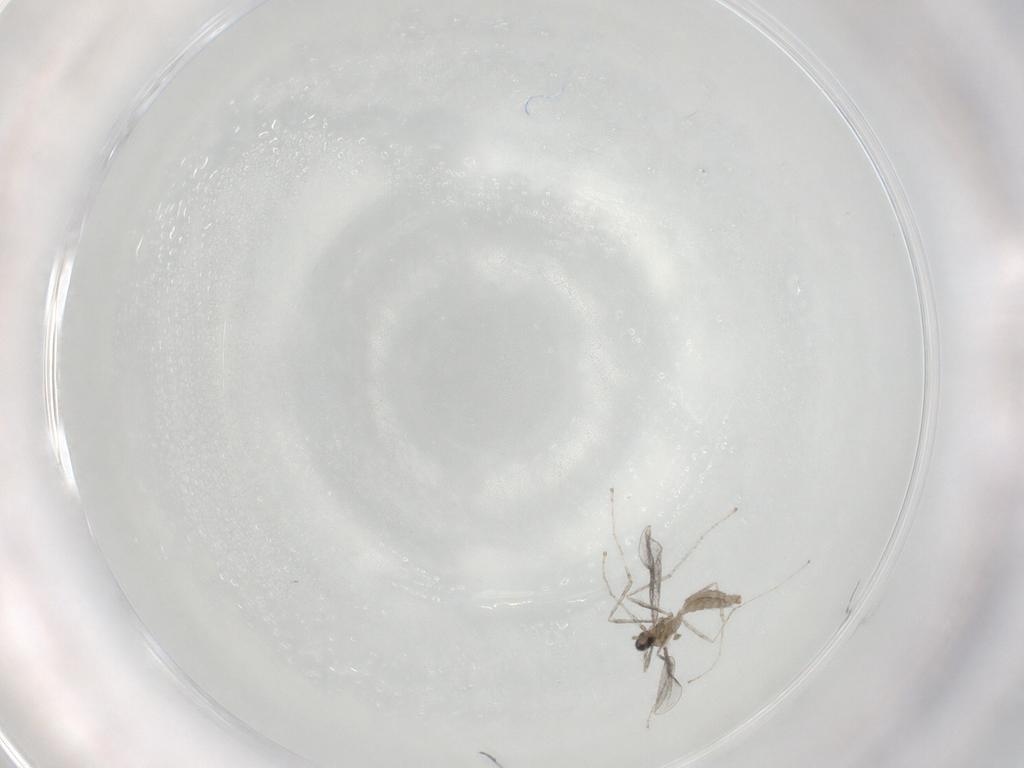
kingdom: Animalia
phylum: Arthropoda
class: Insecta
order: Diptera
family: Cecidomyiidae
